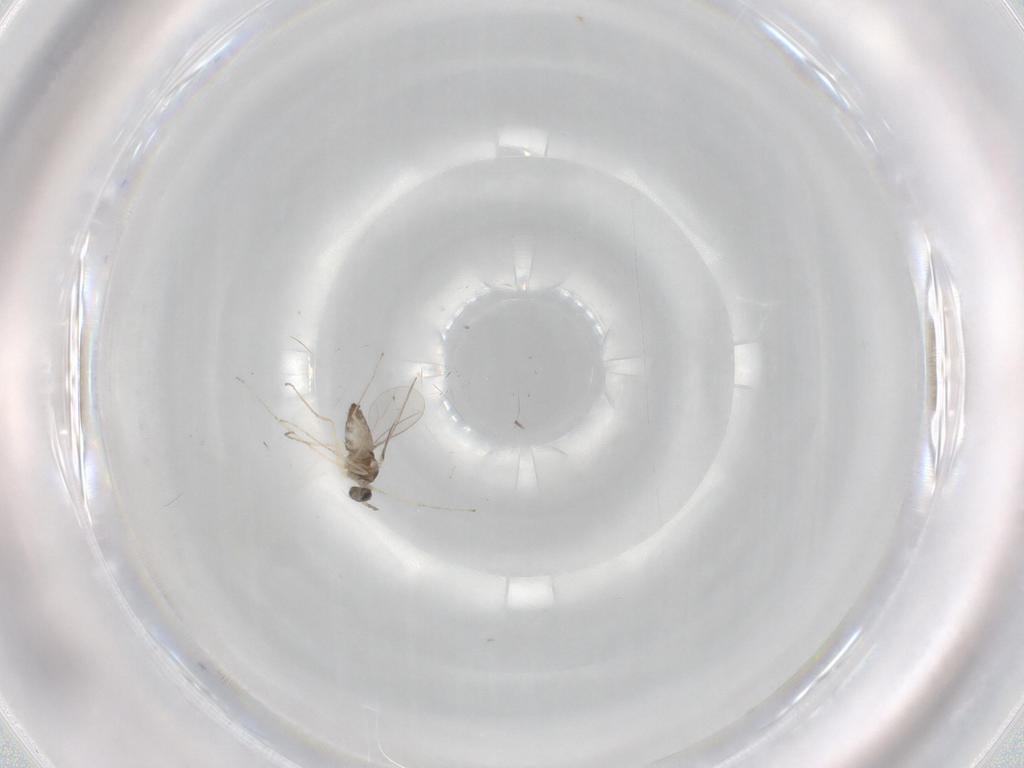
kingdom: Animalia
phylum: Arthropoda
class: Insecta
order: Diptera
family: Cecidomyiidae
